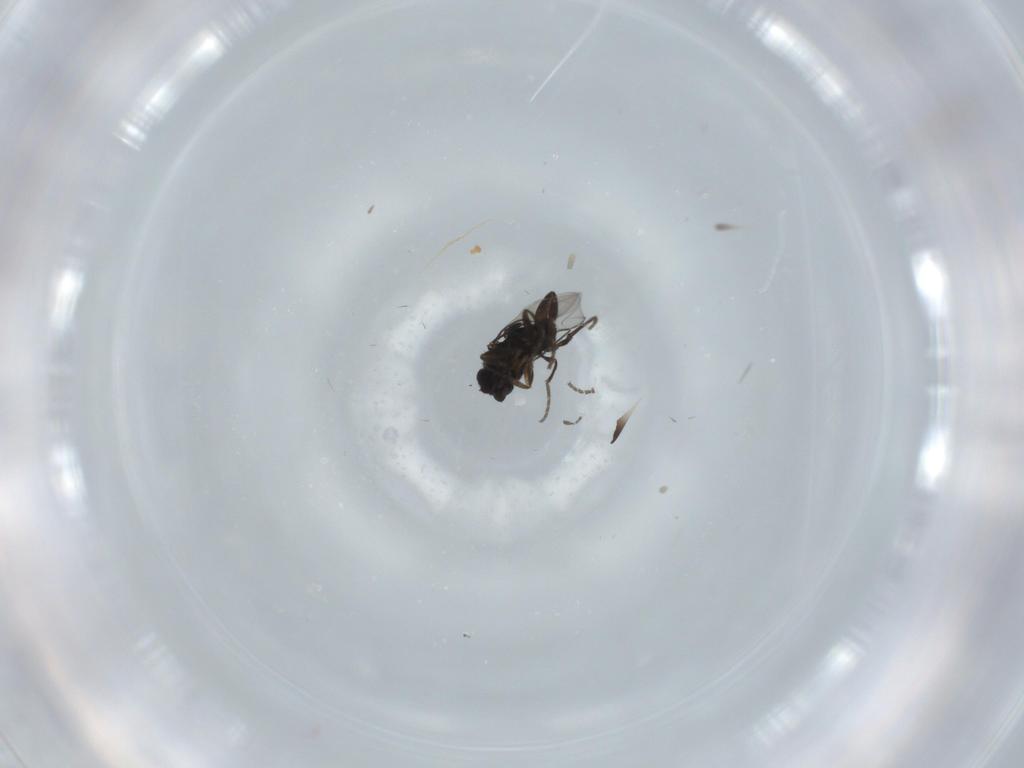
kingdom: Animalia
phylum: Arthropoda
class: Insecta
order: Diptera
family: Phoridae
